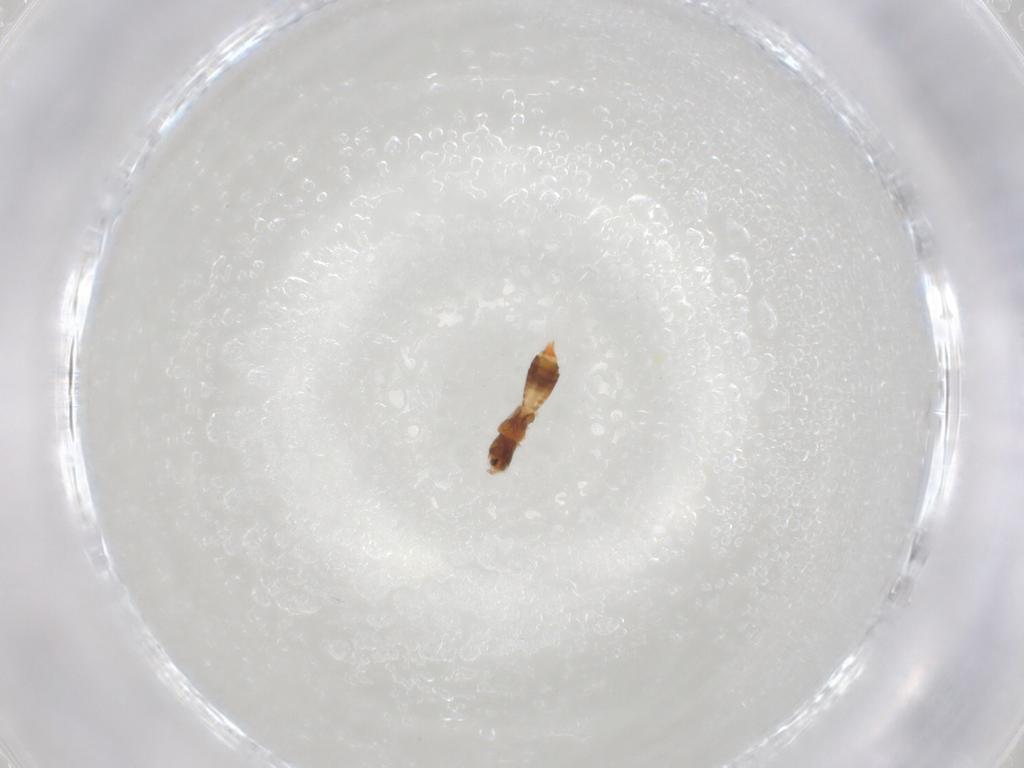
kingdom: Animalia
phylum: Arthropoda
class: Insecta
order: Thysanoptera
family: Aeolothripidae
